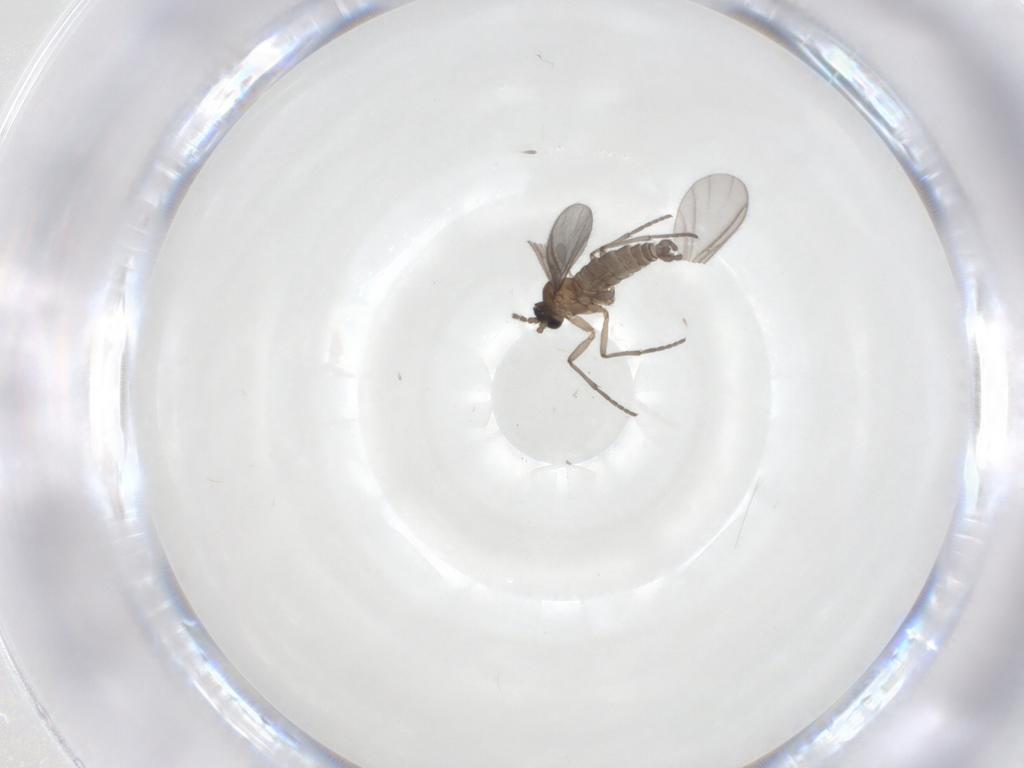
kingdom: Animalia
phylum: Arthropoda
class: Insecta
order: Diptera
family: Sciaridae
